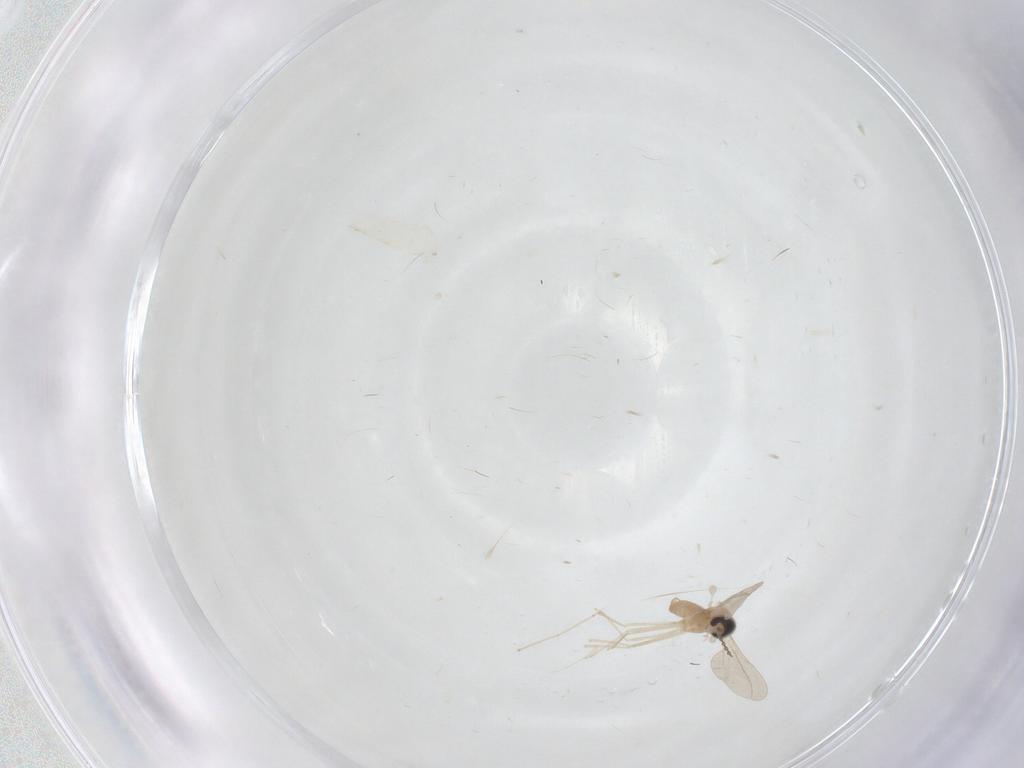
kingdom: Animalia
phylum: Arthropoda
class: Insecta
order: Diptera
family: Cecidomyiidae
